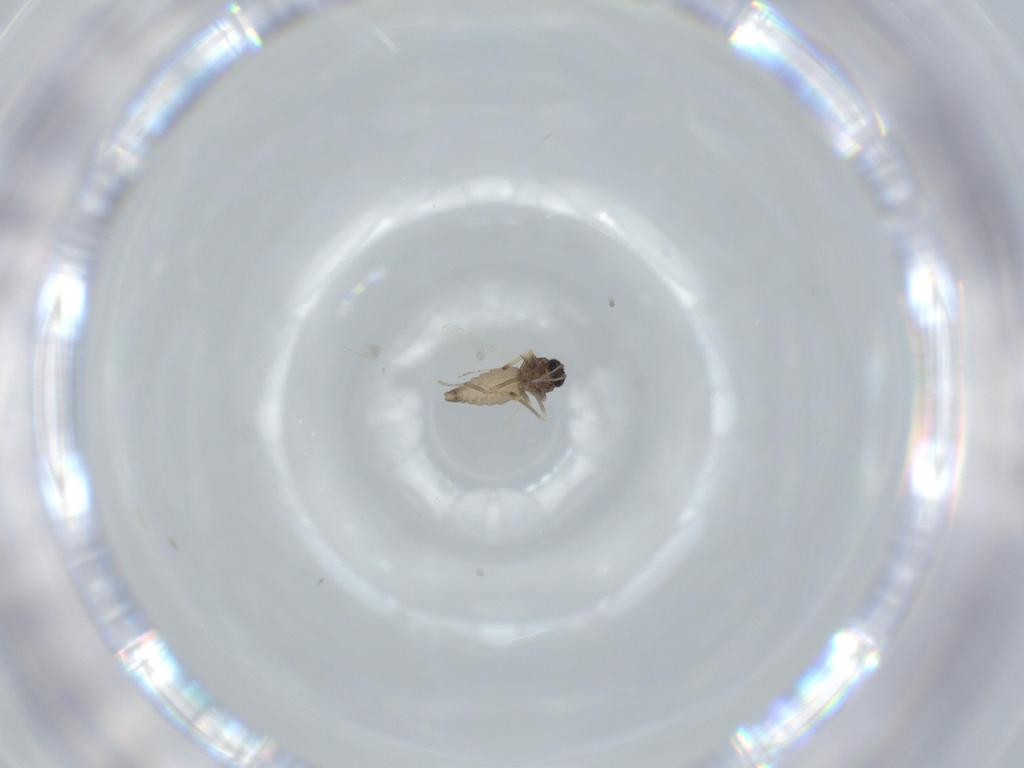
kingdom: Animalia
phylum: Arthropoda
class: Insecta
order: Diptera
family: Ceratopogonidae
